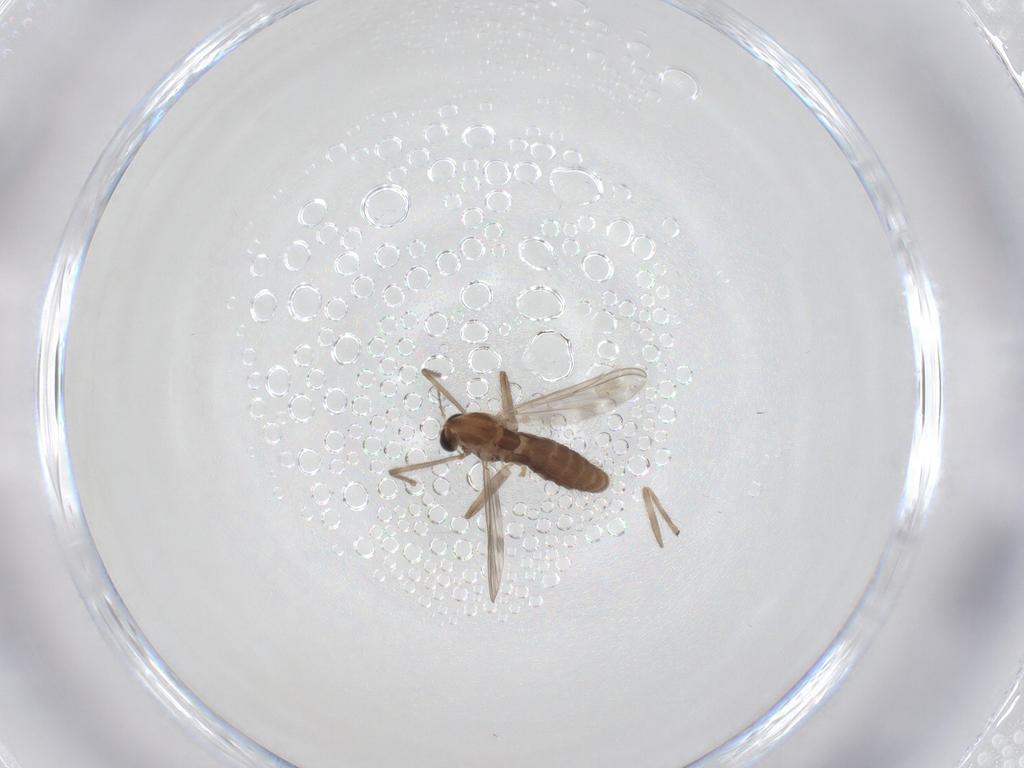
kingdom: Animalia
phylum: Arthropoda
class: Insecta
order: Diptera
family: Chironomidae
